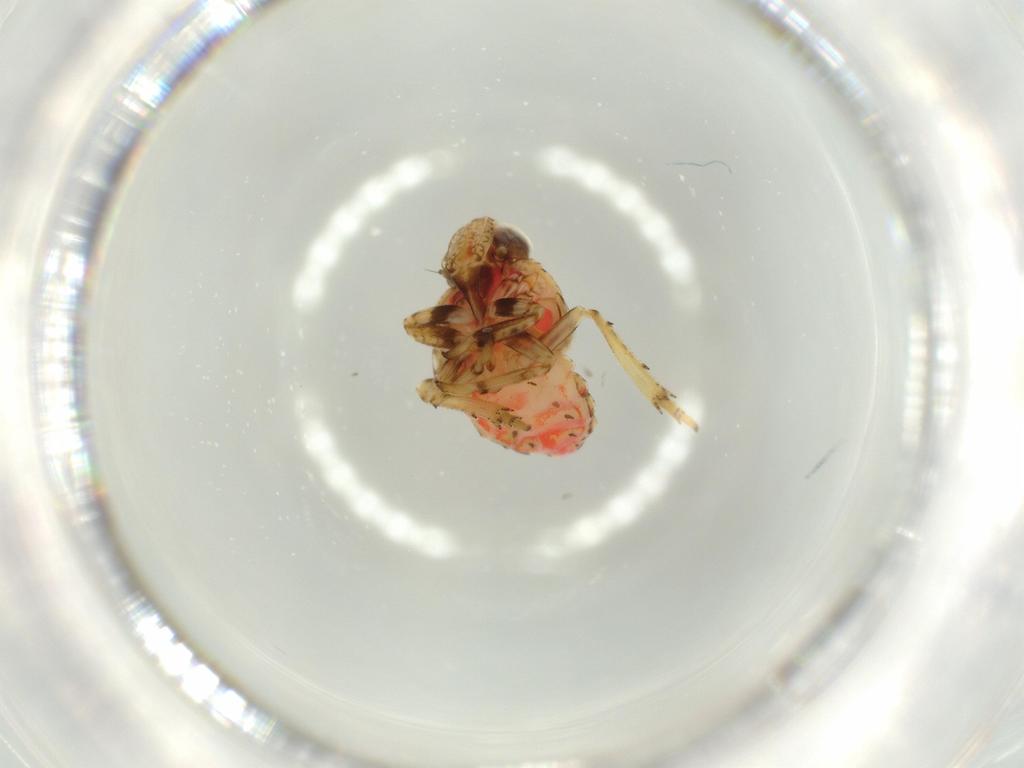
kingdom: Animalia
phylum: Arthropoda
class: Insecta
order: Hemiptera
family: Issidae
